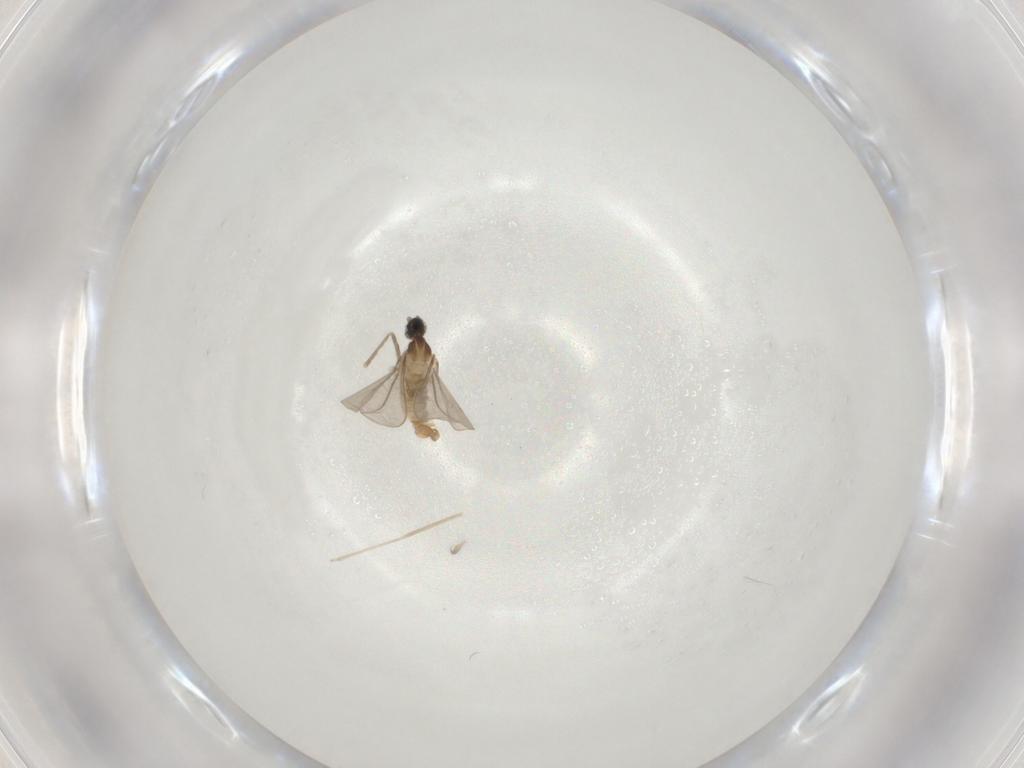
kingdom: Animalia
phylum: Arthropoda
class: Insecta
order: Diptera
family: Cecidomyiidae
